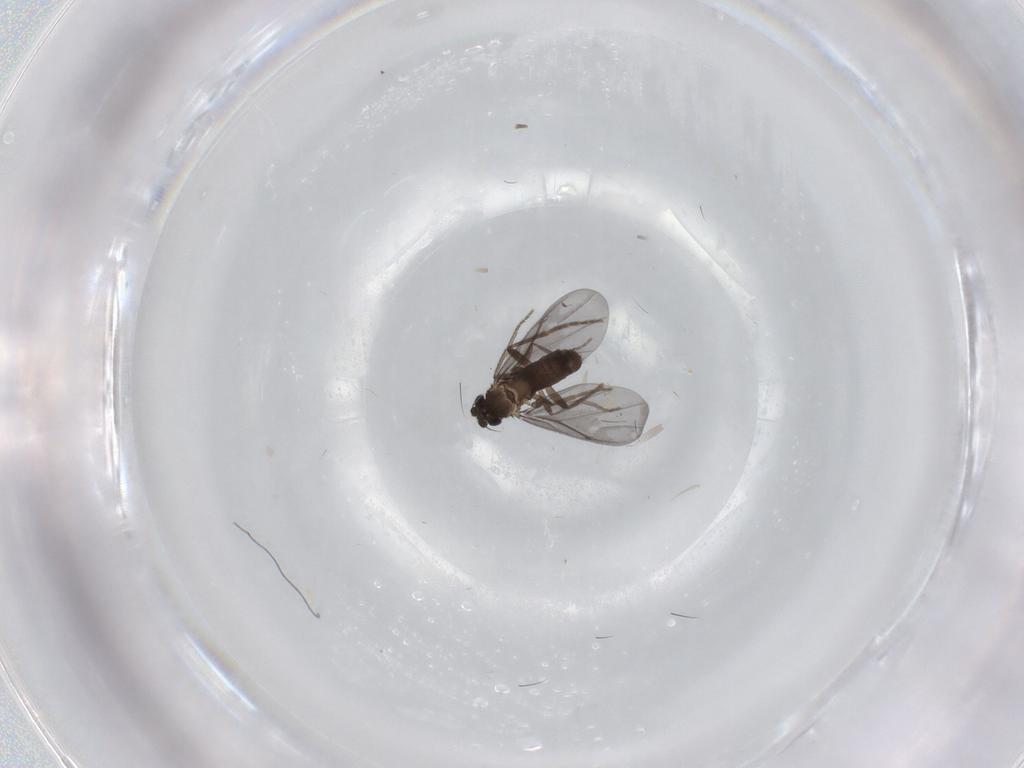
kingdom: Animalia
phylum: Arthropoda
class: Insecta
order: Diptera
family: Phoridae
